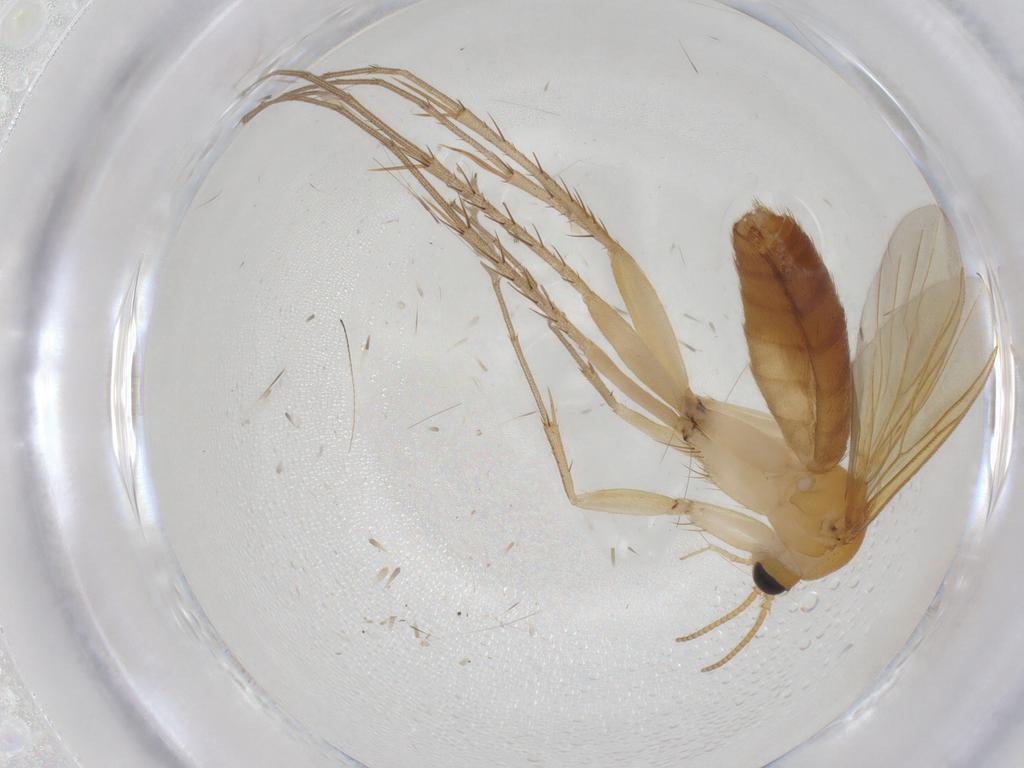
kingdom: Animalia
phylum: Arthropoda
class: Insecta
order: Diptera
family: Mycetophilidae
